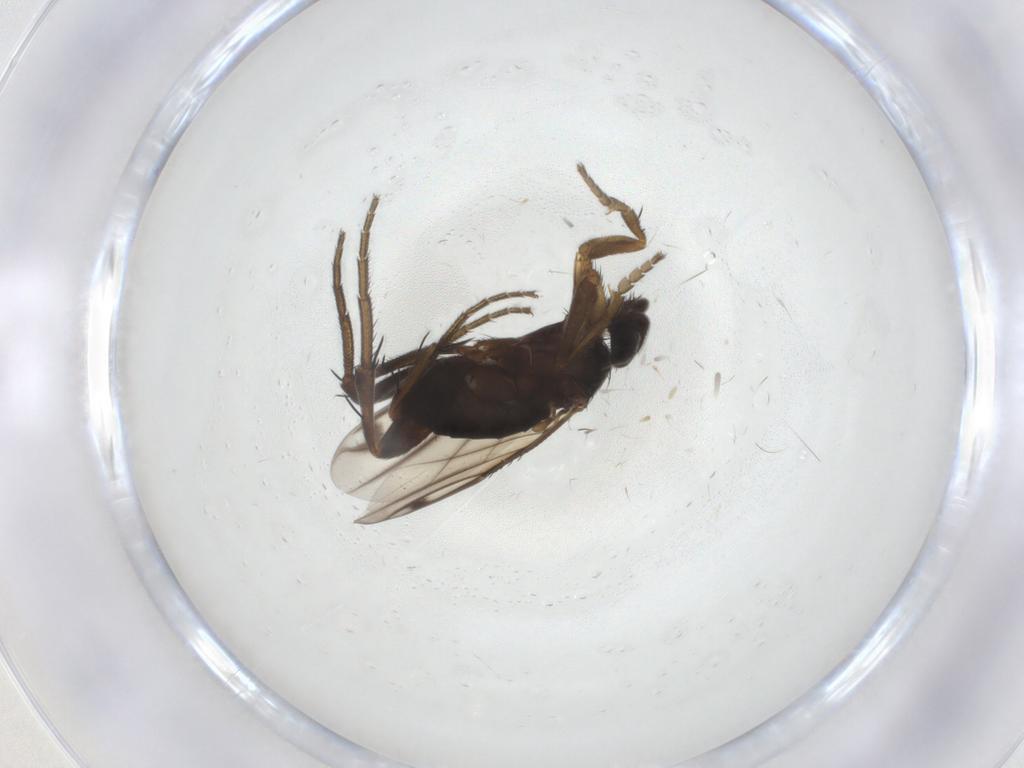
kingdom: Animalia
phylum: Arthropoda
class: Insecta
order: Diptera
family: Phoridae
